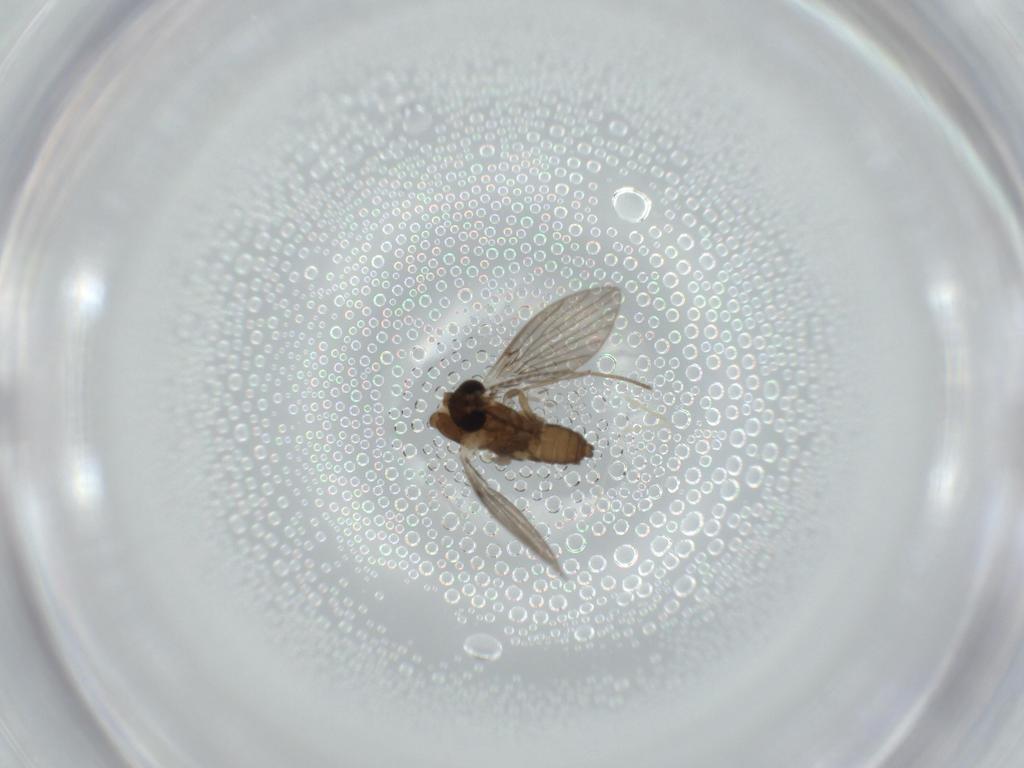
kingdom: Animalia
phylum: Arthropoda
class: Insecta
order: Diptera
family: Psychodidae
